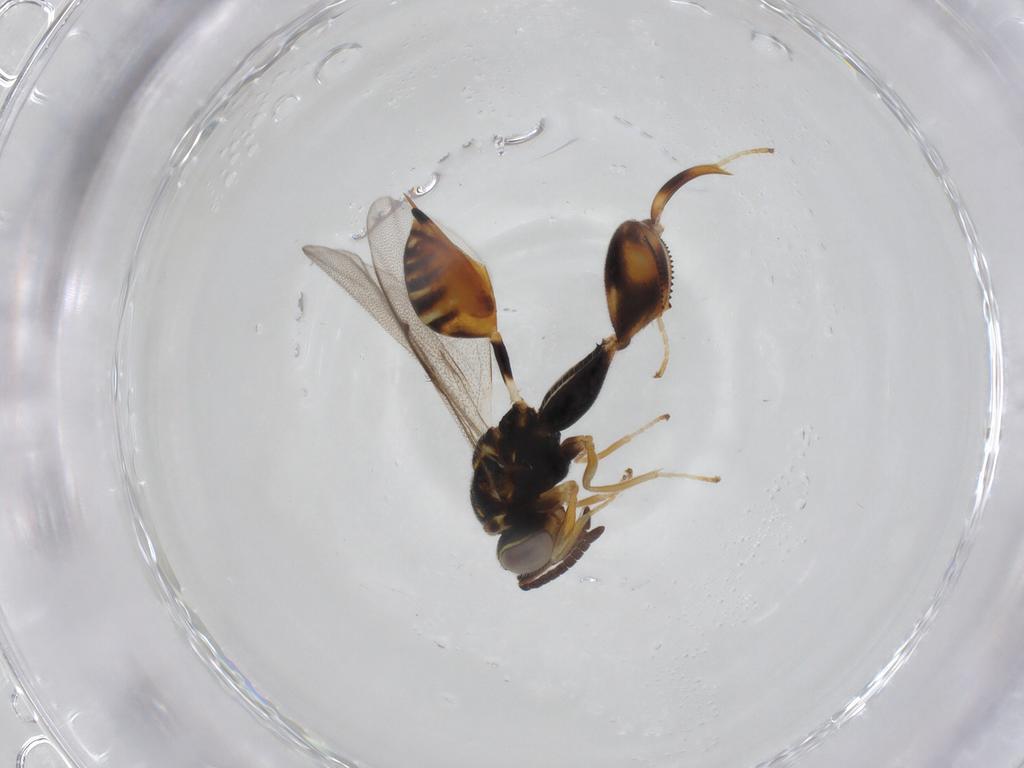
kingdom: Animalia
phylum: Arthropoda
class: Insecta
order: Hymenoptera
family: Chalcididae
